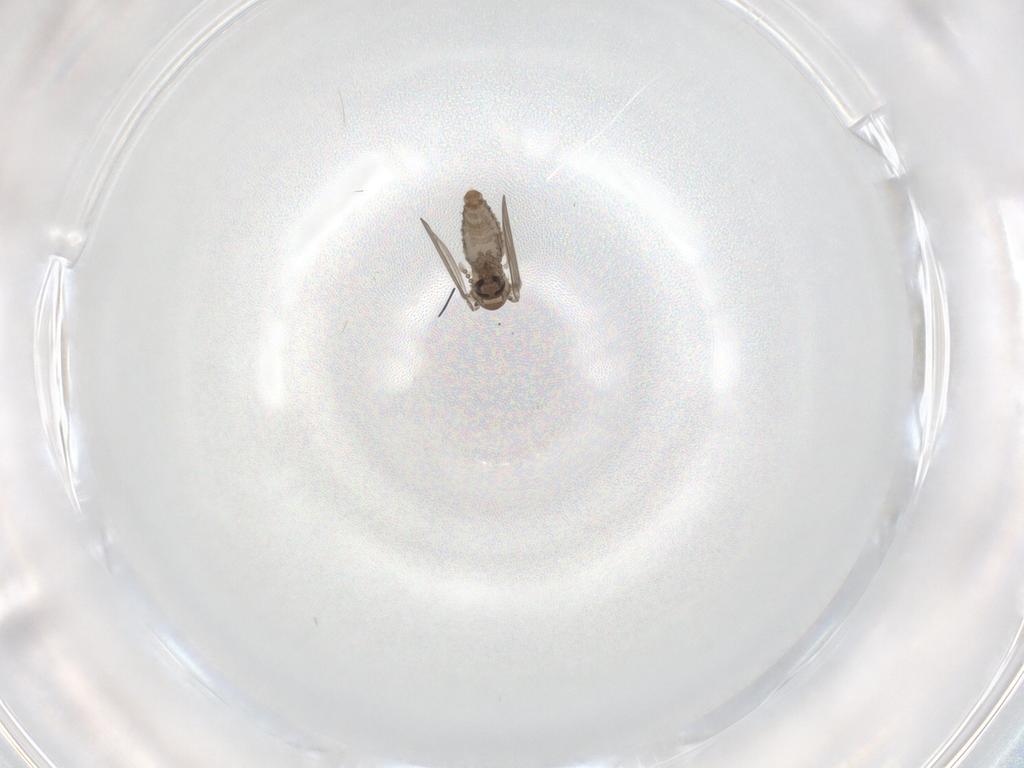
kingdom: Animalia
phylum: Arthropoda
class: Insecta
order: Diptera
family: Psychodidae
